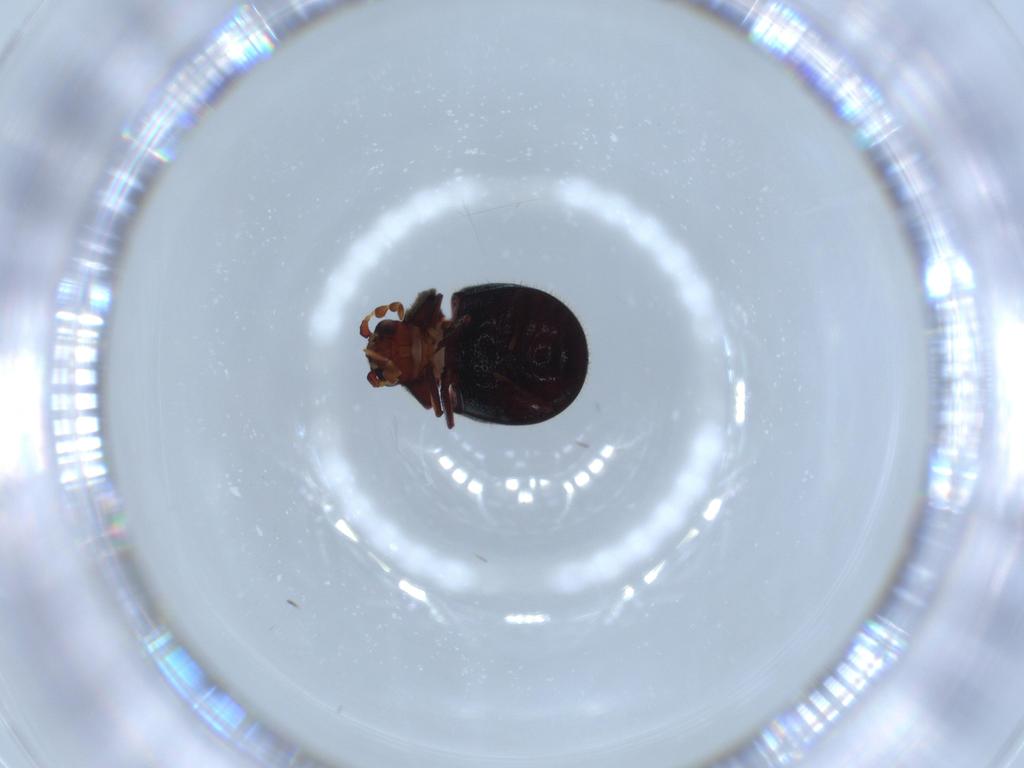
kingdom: Animalia
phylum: Arthropoda
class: Insecta
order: Coleoptera
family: Ptinidae
